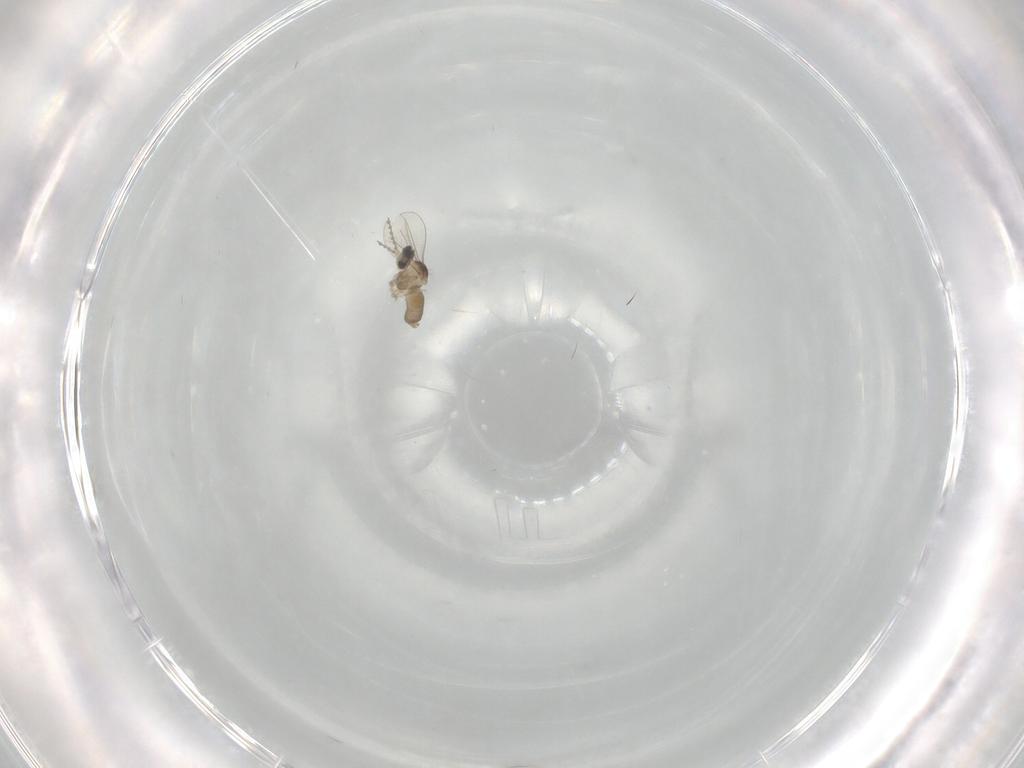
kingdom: Animalia
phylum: Arthropoda
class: Insecta
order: Diptera
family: Cecidomyiidae
